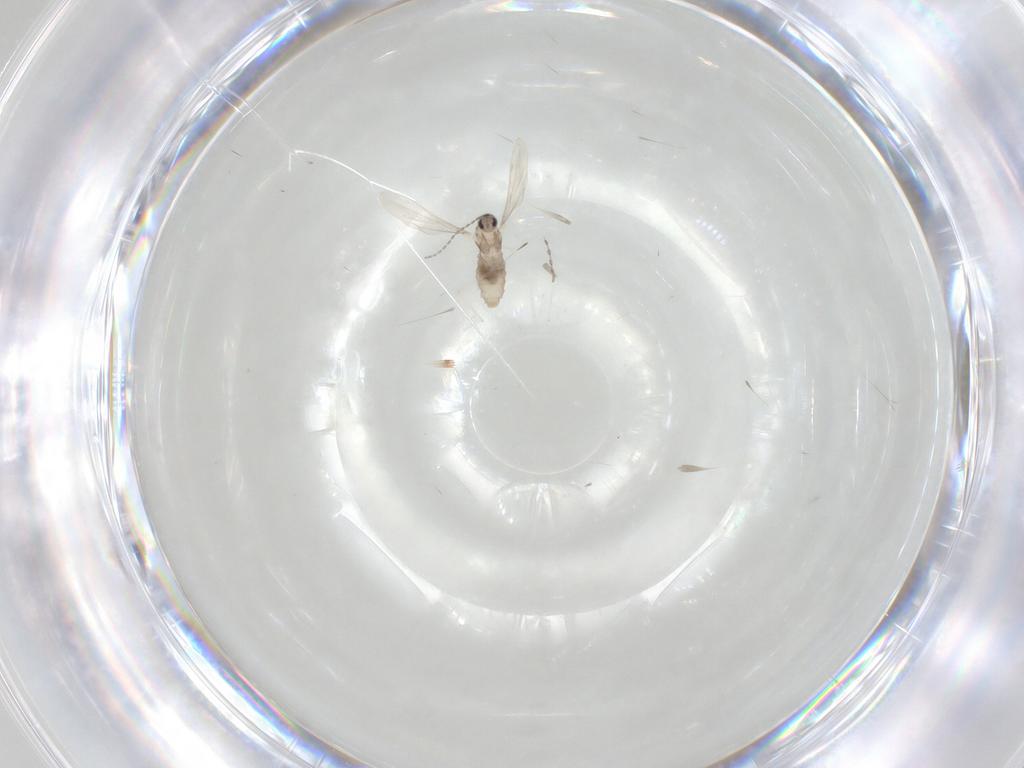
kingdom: Animalia
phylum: Arthropoda
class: Insecta
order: Diptera
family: Cecidomyiidae
